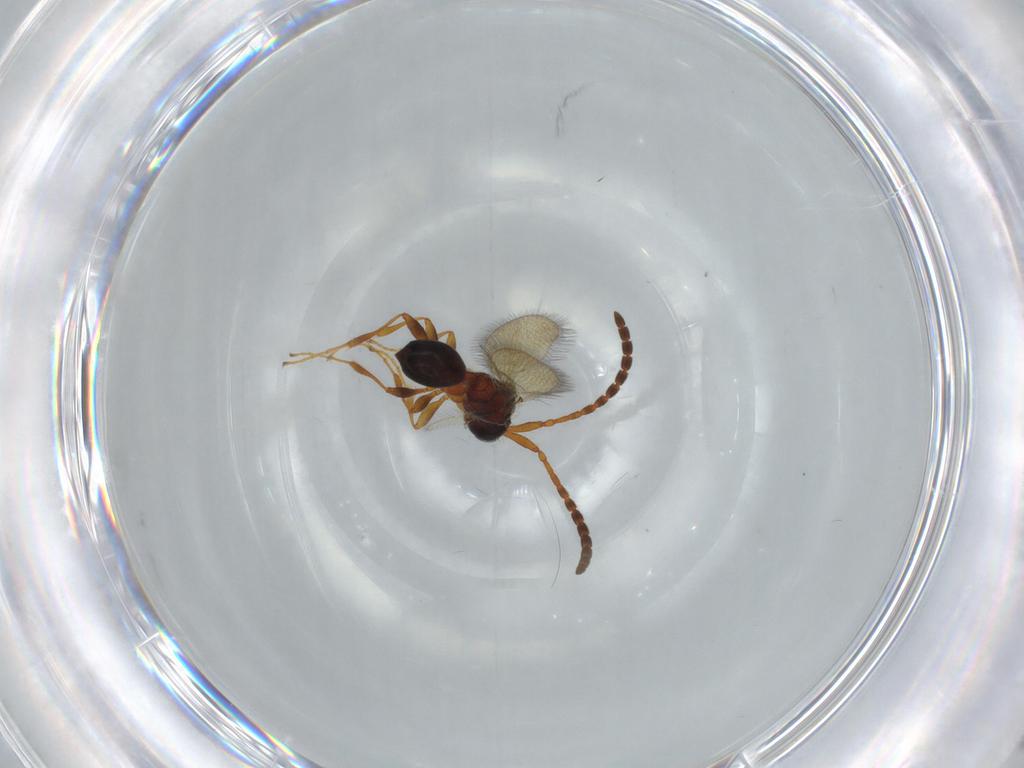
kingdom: Animalia
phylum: Arthropoda
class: Insecta
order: Hymenoptera
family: Diapriidae
